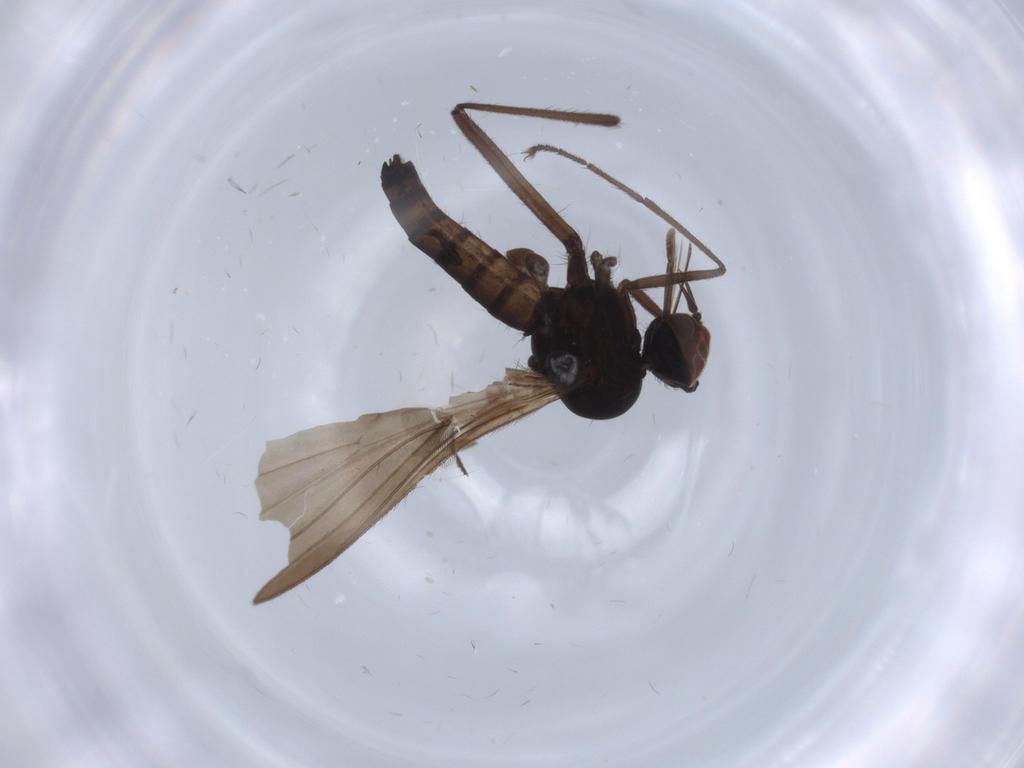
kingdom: Animalia
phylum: Arthropoda
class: Insecta
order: Diptera
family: Empididae
